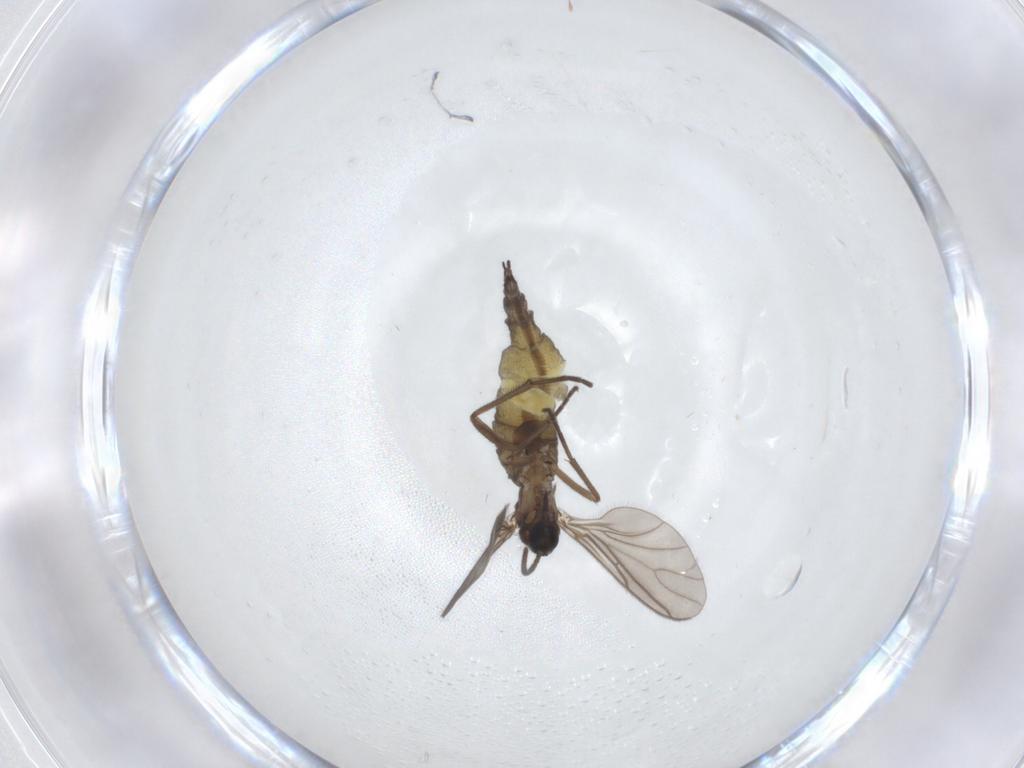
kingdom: Animalia
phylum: Arthropoda
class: Insecta
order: Diptera
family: Sciaridae
